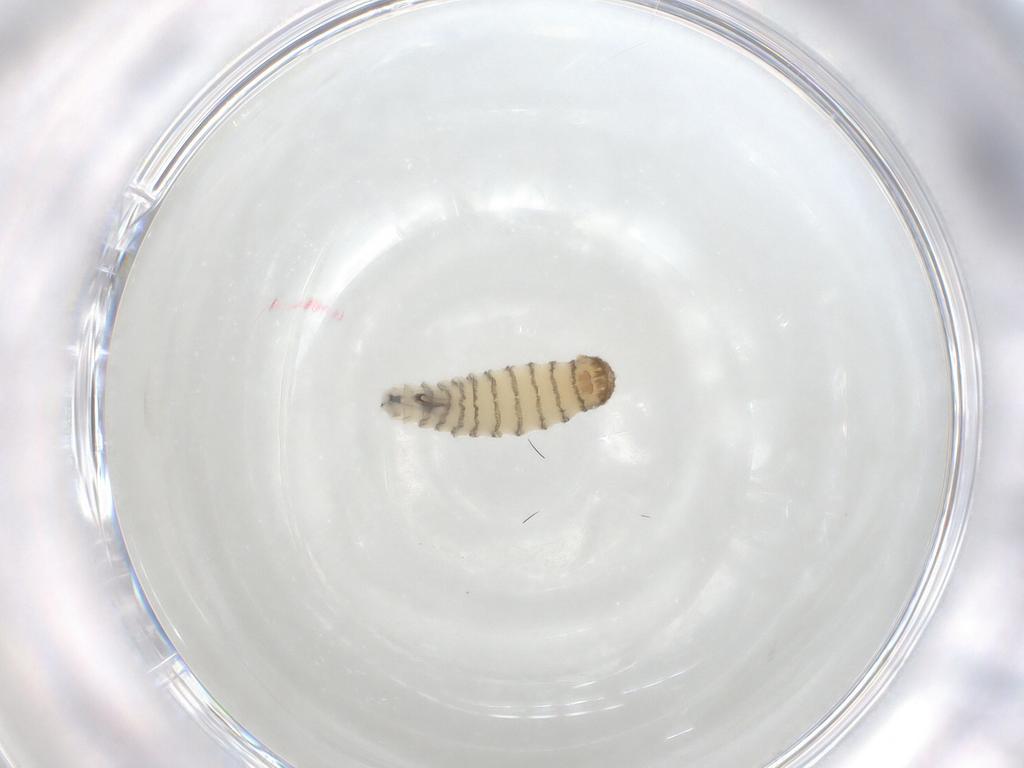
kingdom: Animalia
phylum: Arthropoda
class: Insecta
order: Diptera
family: Sarcophagidae
